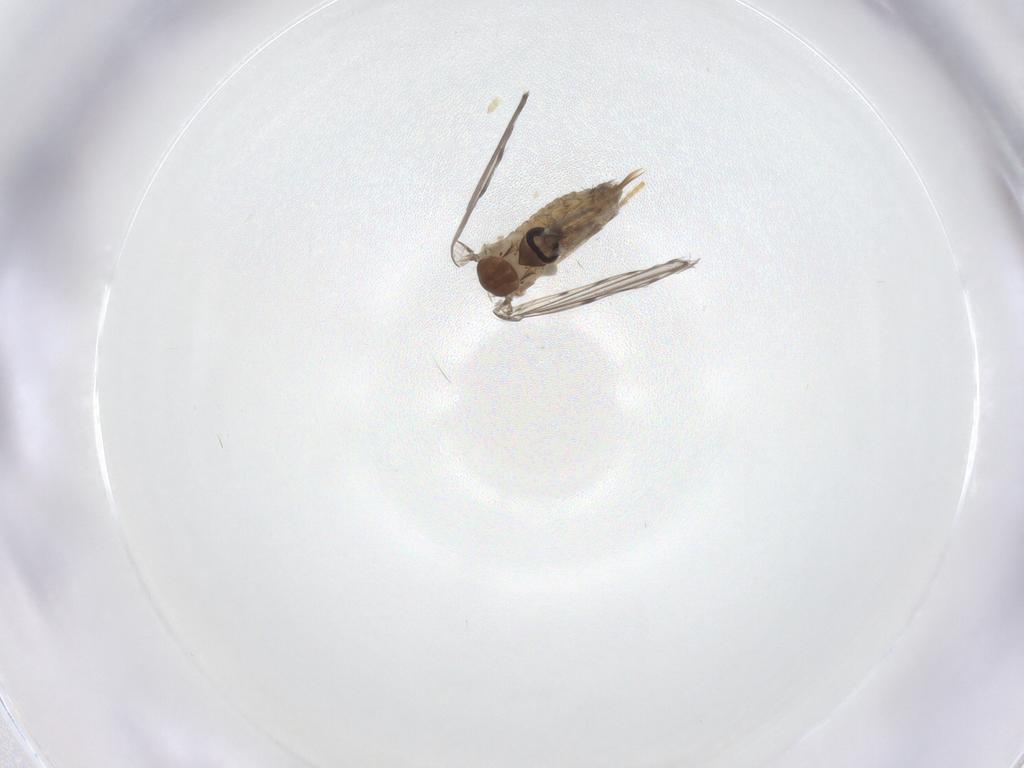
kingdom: Animalia
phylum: Arthropoda
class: Insecta
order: Diptera
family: Psychodidae
